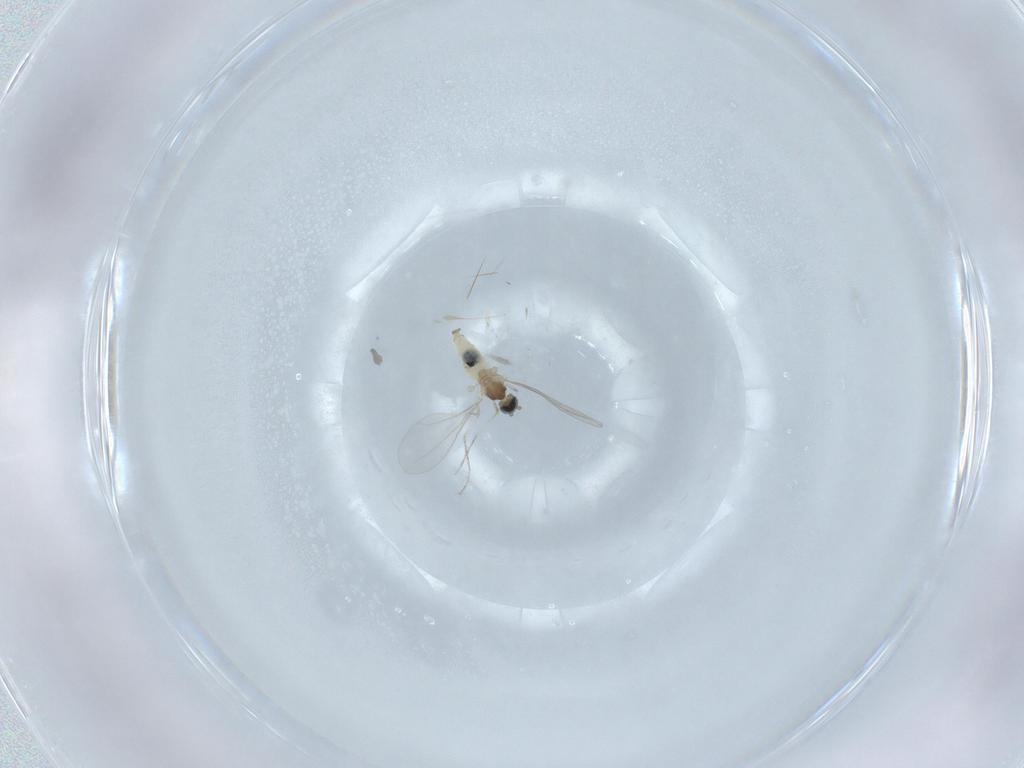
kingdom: Animalia
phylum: Arthropoda
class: Insecta
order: Diptera
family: Cecidomyiidae
